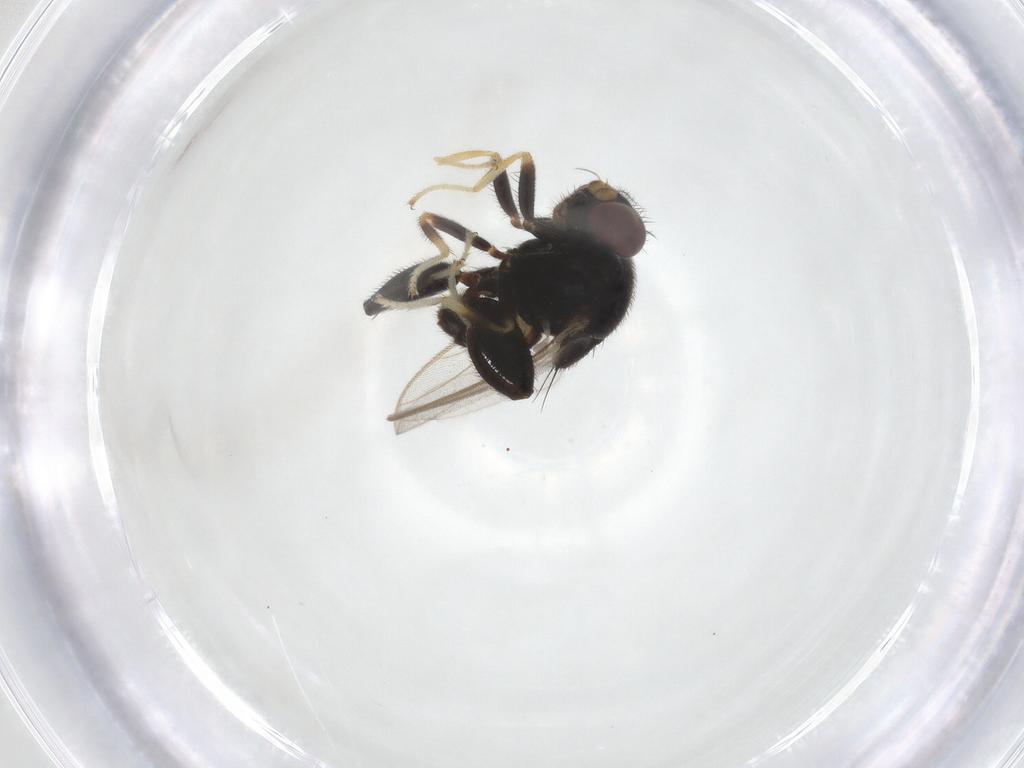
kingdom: Animalia
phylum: Arthropoda
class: Insecta
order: Diptera
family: Chloropidae
